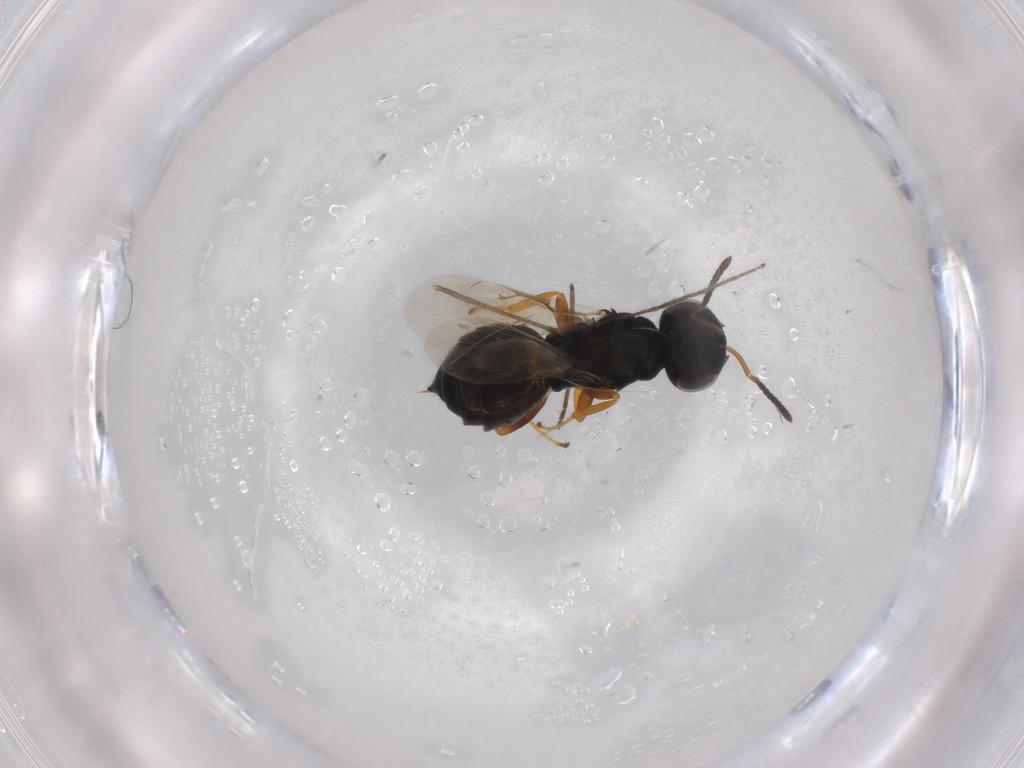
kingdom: Animalia
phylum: Arthropoda
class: Insecta
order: Hymenoptera
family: Pteromalidae
